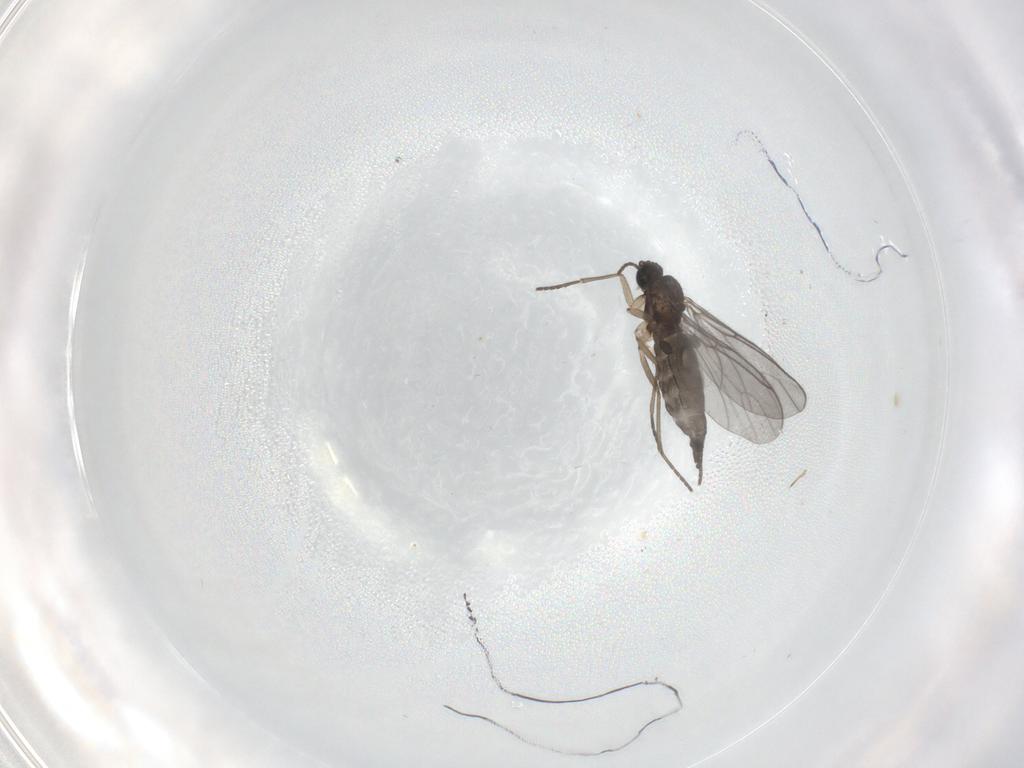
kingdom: Animalia
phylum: Arthropoda
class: Insecta
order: Diptera
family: Sciaridae
